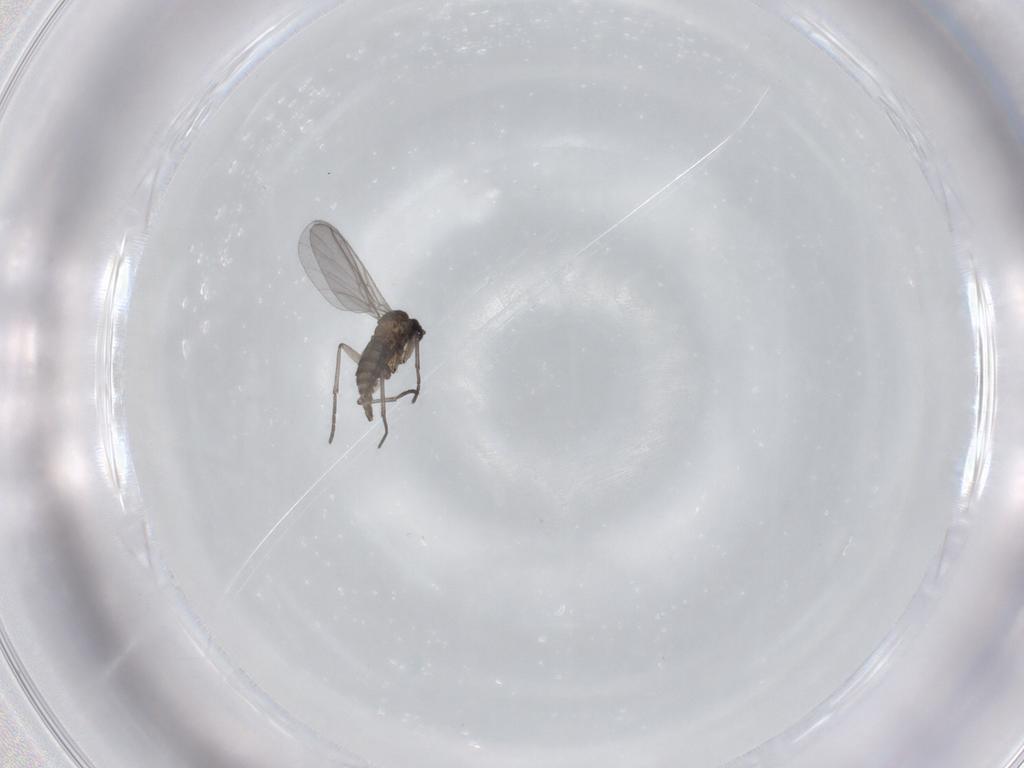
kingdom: Animalia
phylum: Arthropoda
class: Insecta
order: Diptera
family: Chironomidae
